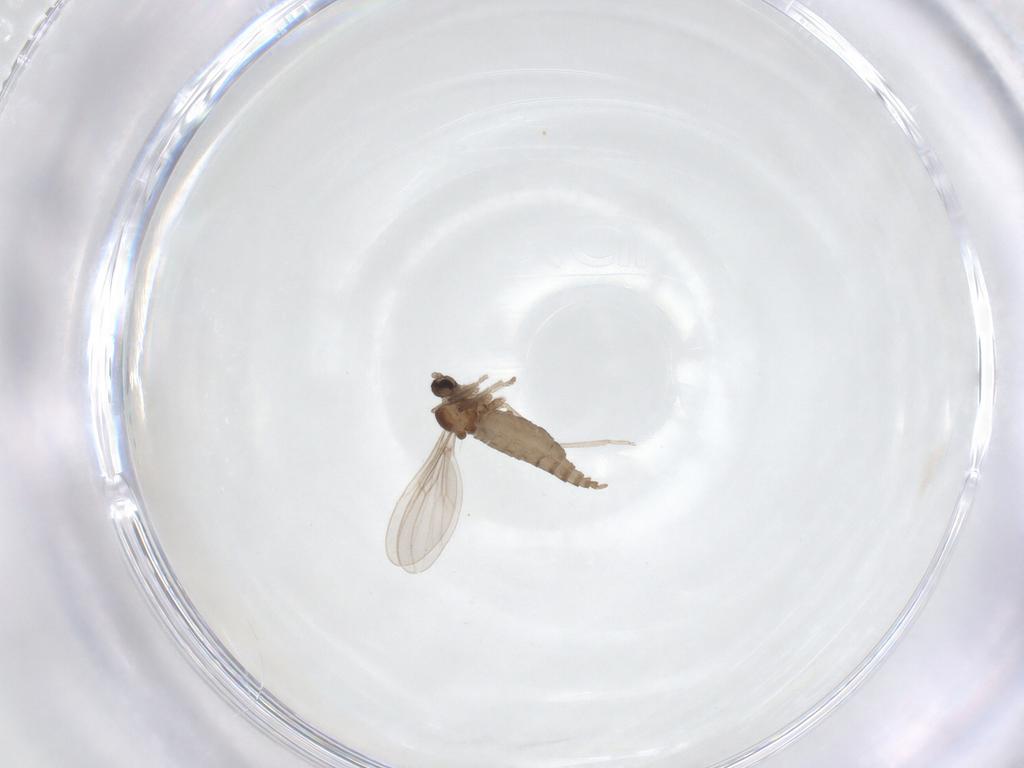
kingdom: Animalia
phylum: Arthropoda
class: Insecta
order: Diptera
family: Cecidomyiidae
